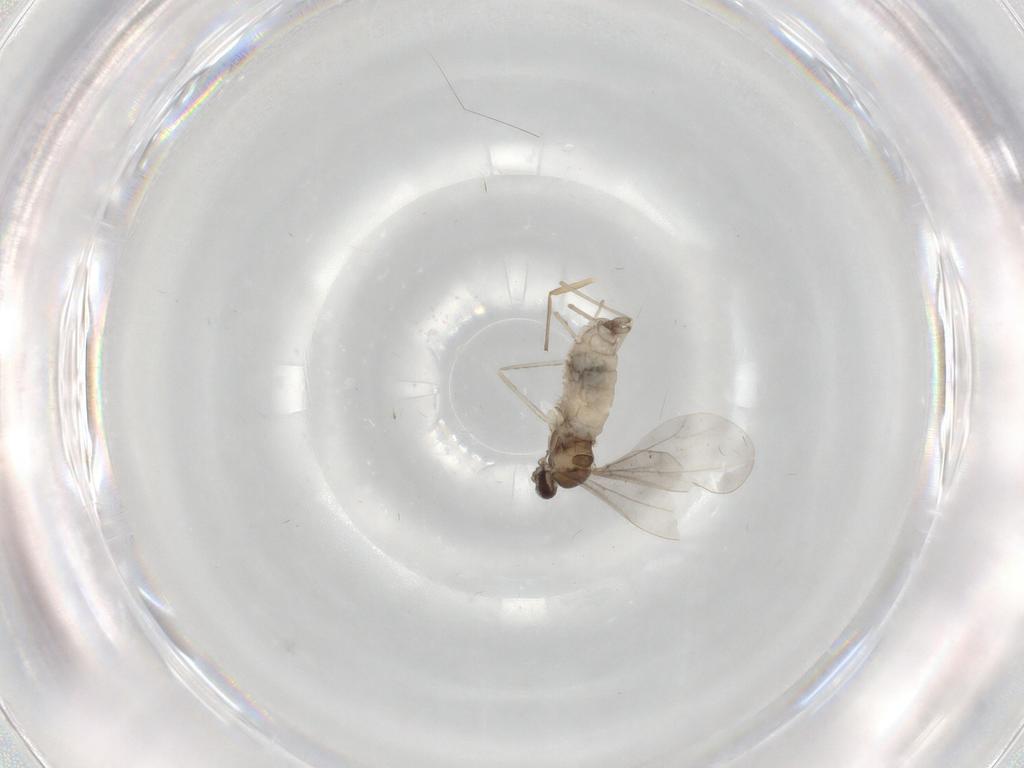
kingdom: Animalia
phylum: Arthropoda
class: Insecta
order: Diptera
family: Cecidomyiidae
